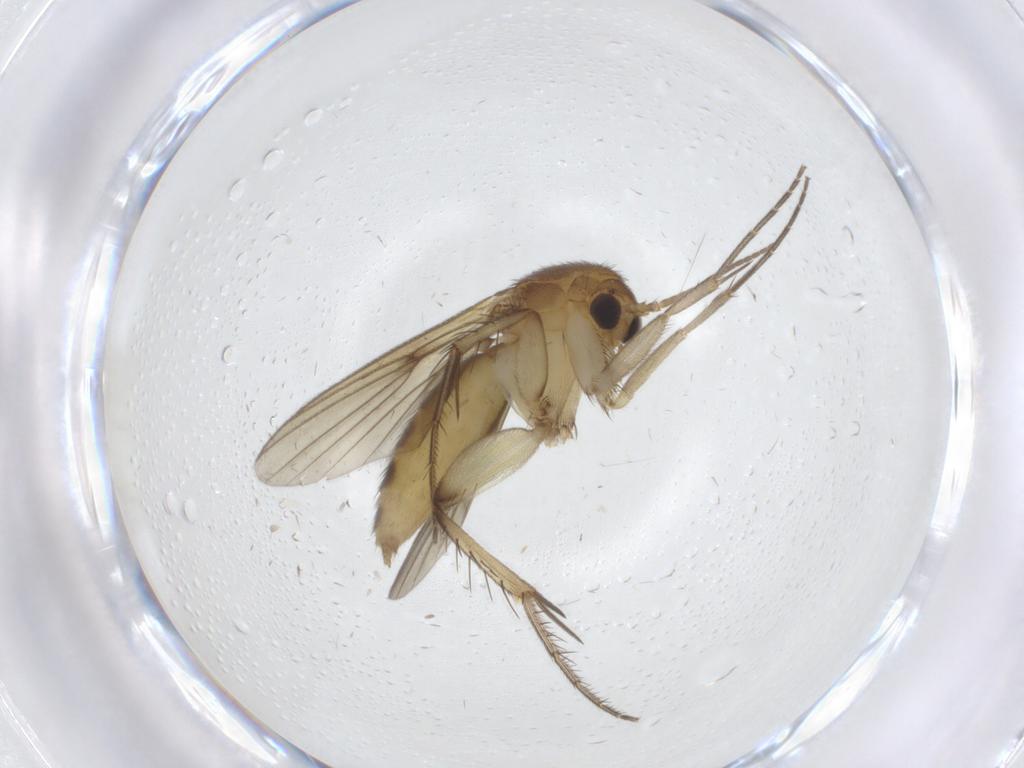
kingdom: Animalia
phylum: Arthropoda
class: Insecta
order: Diptera
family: Mycetophilidae
